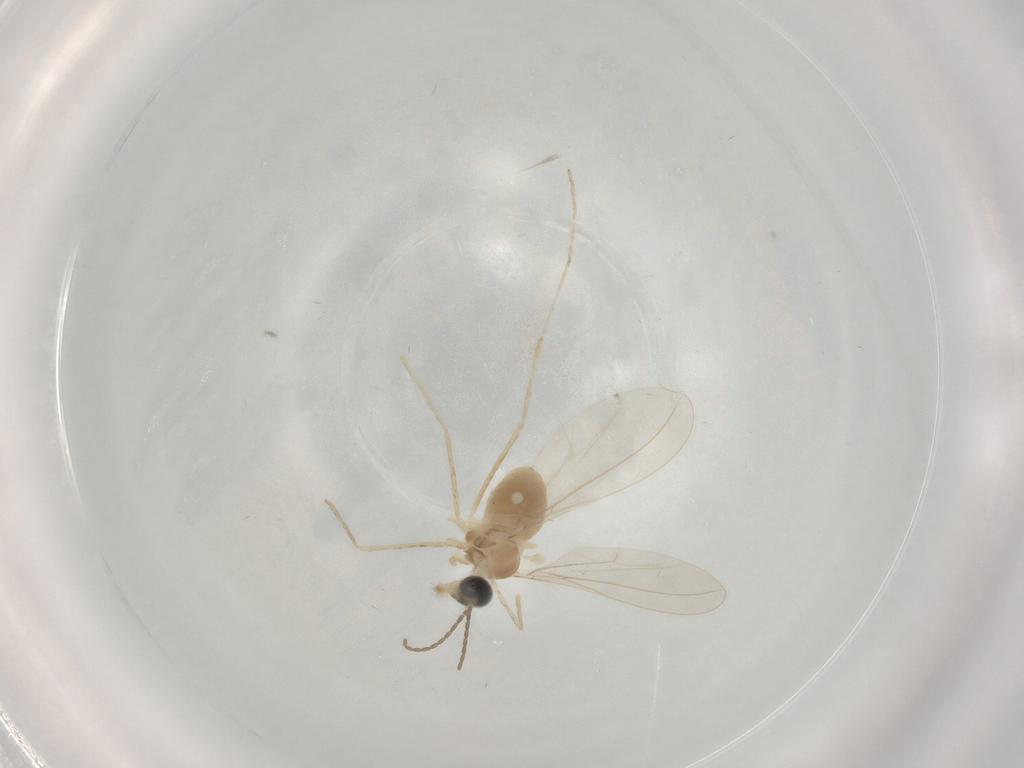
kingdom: Animalia
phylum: Arthropoda
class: Insecta
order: Diptera
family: Cecidomyiidae
